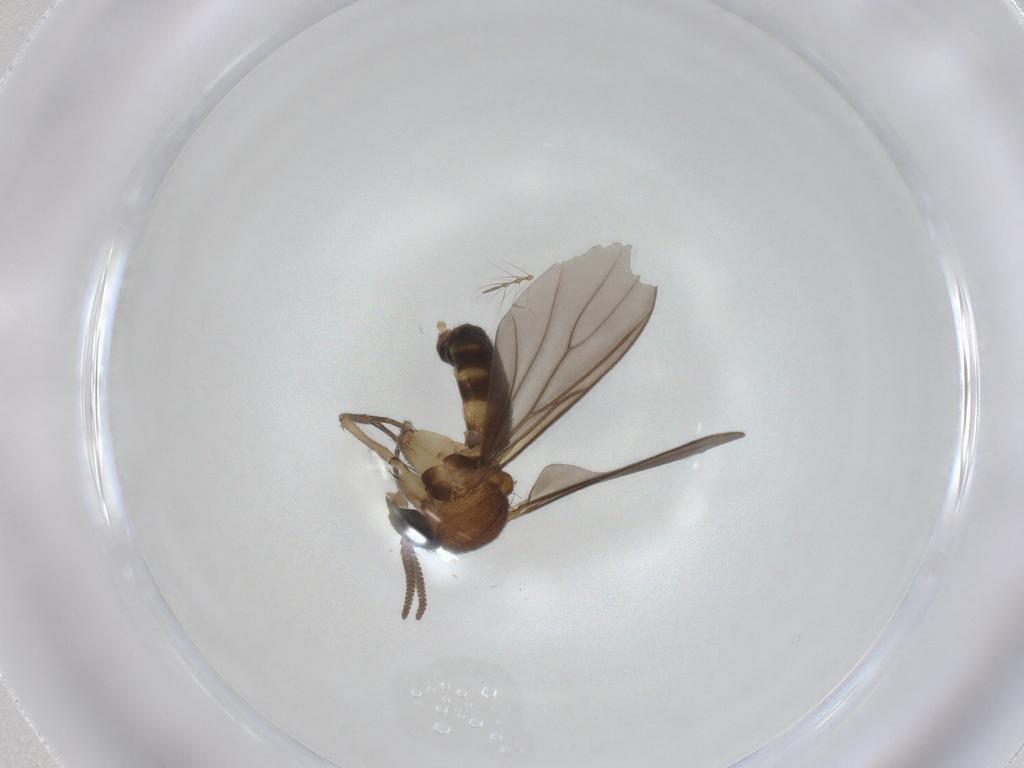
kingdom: Animalia
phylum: Arthropoda
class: Insecta
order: Diptera
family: Mycetophilidae
